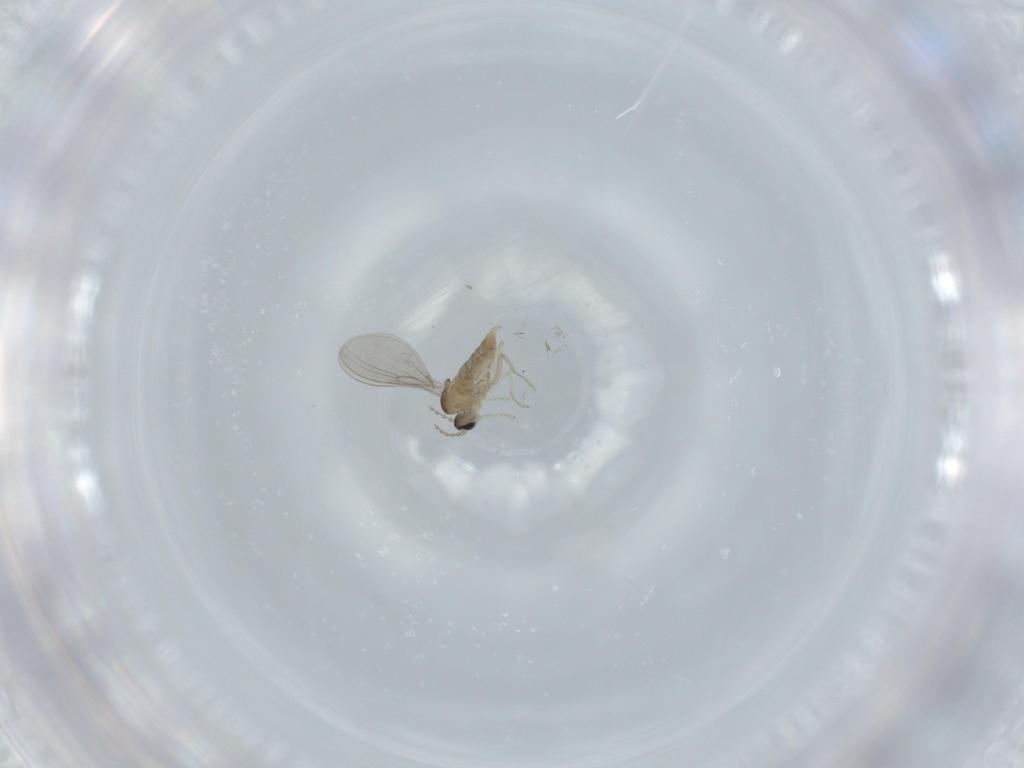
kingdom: Animalia
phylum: Arthropoda
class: Insecta
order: Diptera
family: Cecidomyiidae
